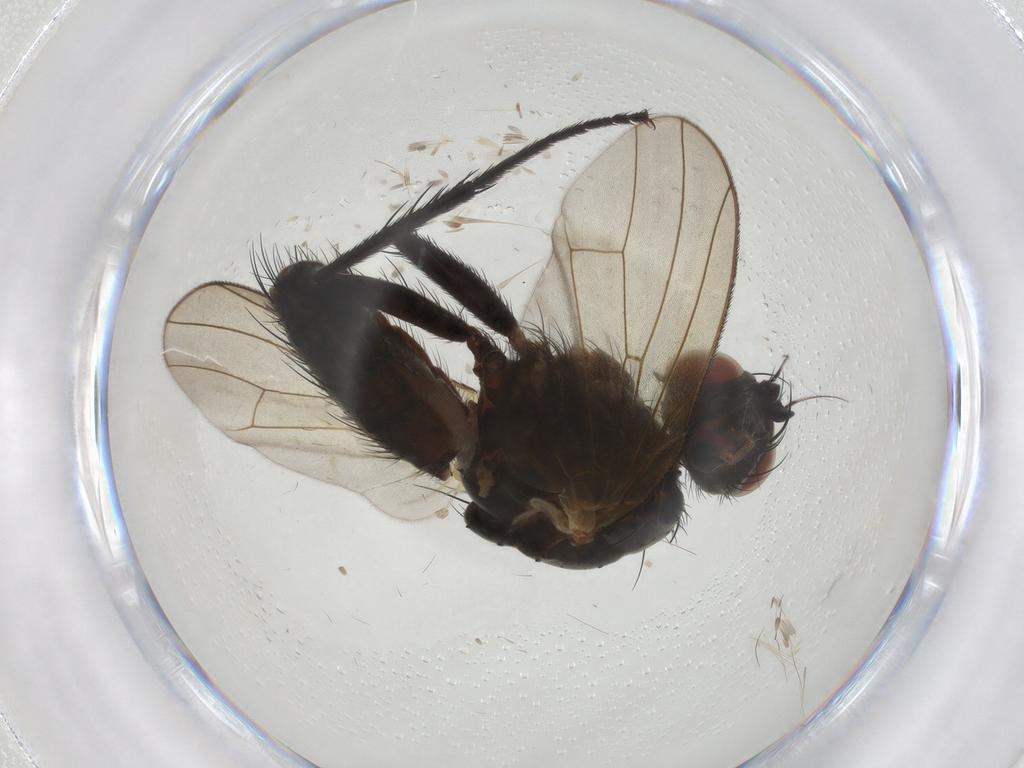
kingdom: Animalia
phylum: Arthropoda
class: Insecta
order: Diptera
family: Anthomyiidae
